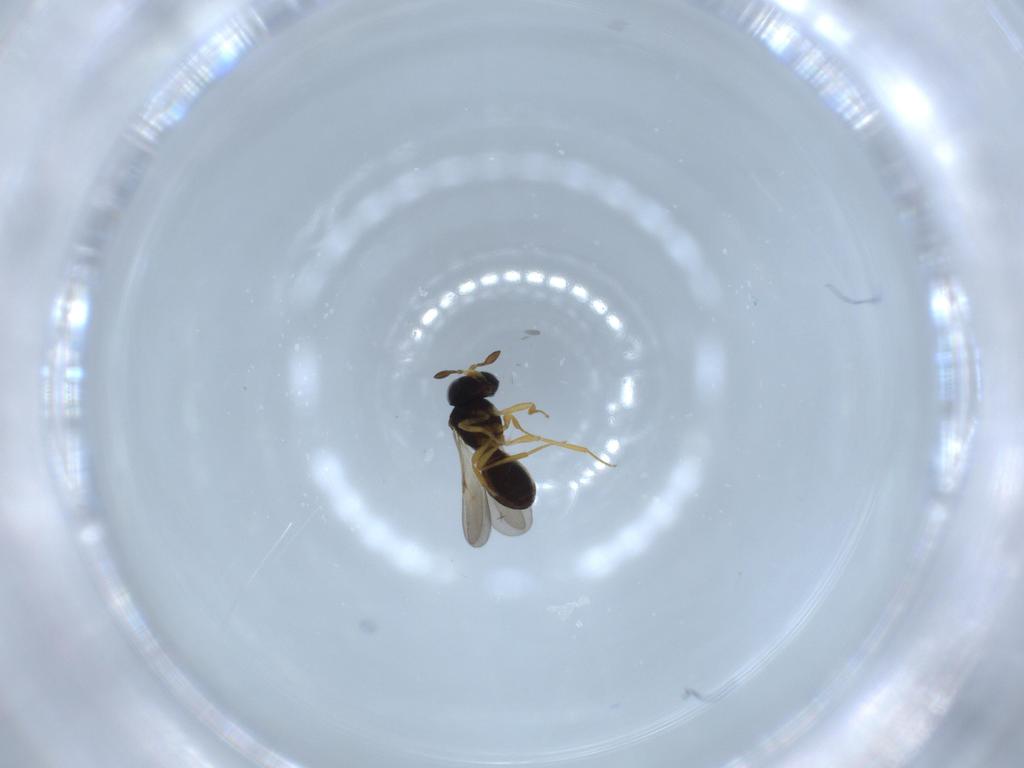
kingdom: Animalia
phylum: Arthropoda
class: Insecta
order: Hymenoptera
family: Scelionidae
